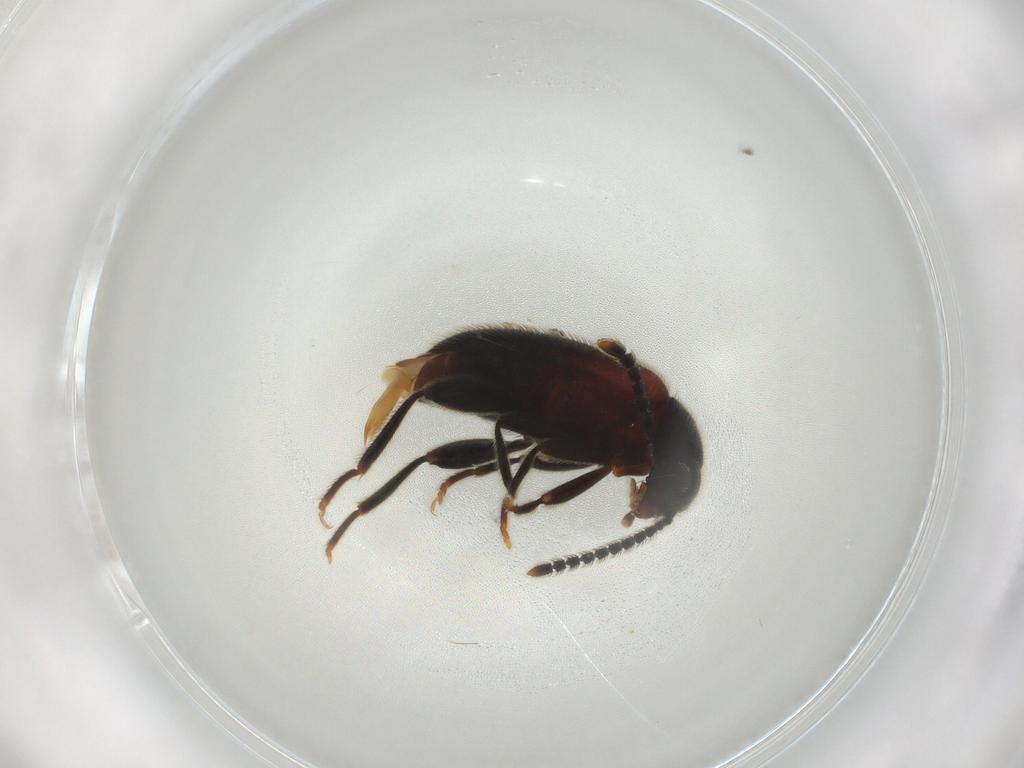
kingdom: Animalia
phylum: Arthropoda
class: Insecta
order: Coleoptera
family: Aderidae
